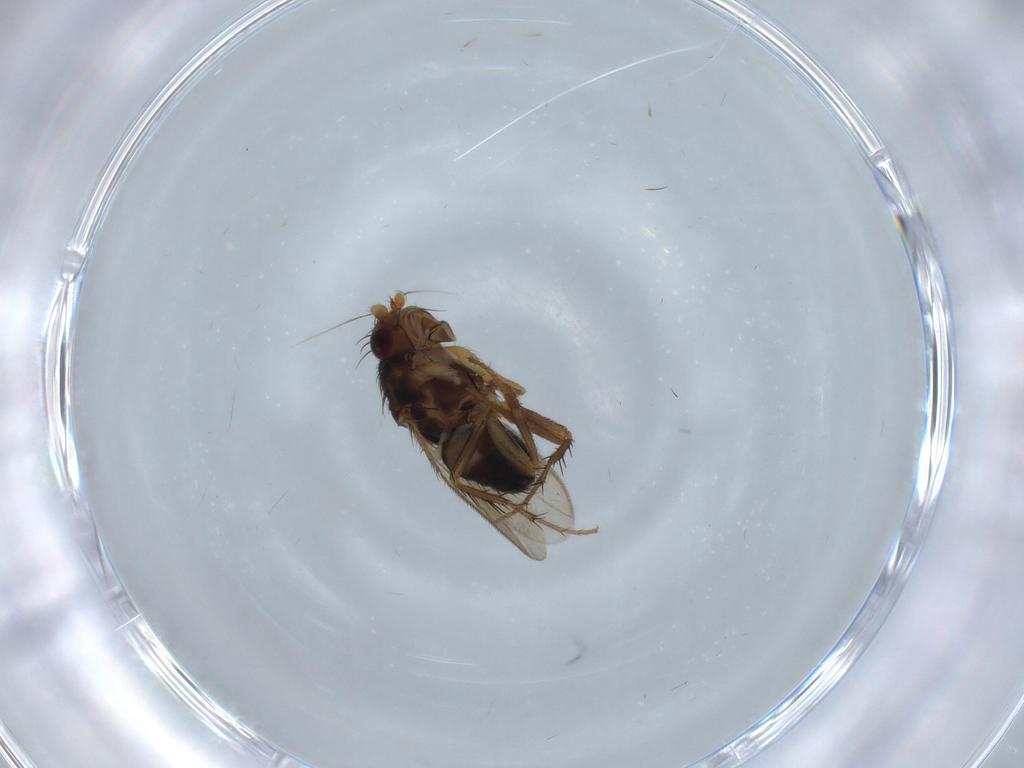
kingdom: Animalia
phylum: Arthropoda
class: Insecta
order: Diptera
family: Sphaeroceridae
